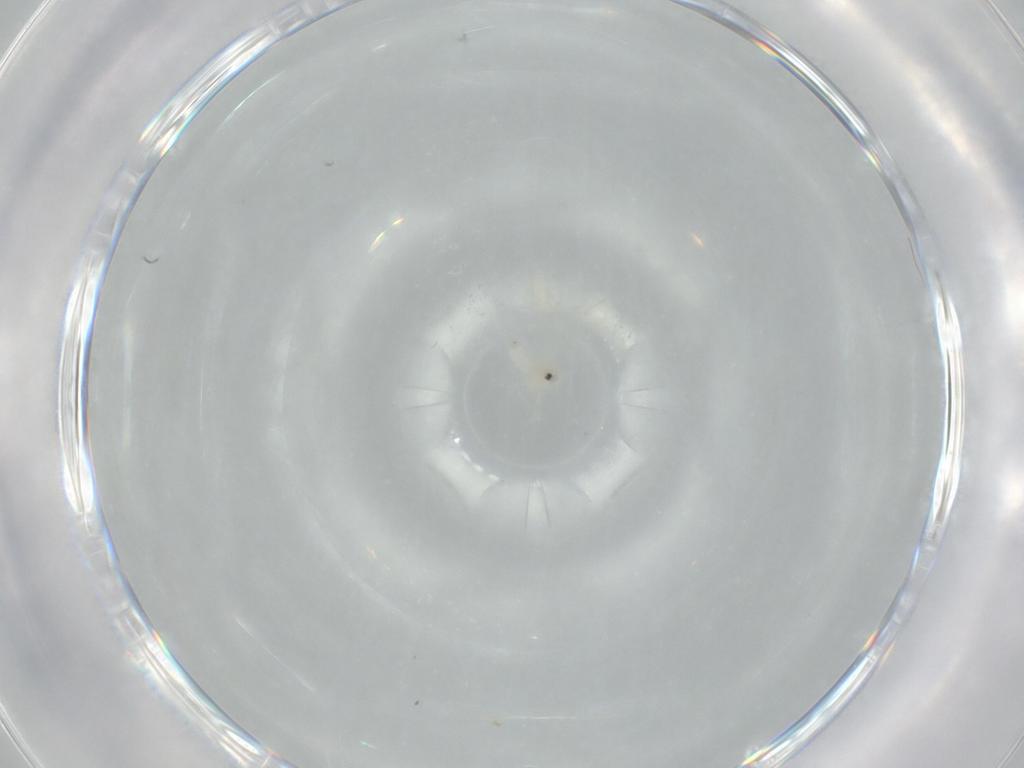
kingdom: Animalia
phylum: Arthropoda
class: Insecta
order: Hemiptera
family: Aleyrodidae
